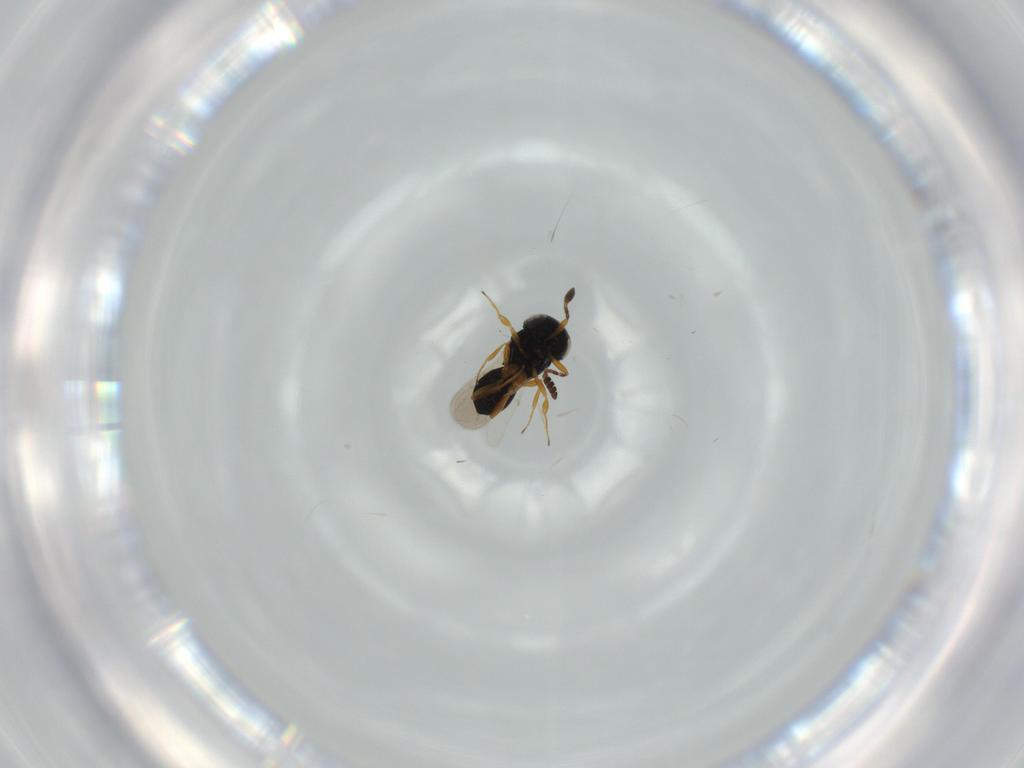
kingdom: Animalia
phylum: Arthropoda
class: Insecta
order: Hymenoptera
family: Scelionidae
